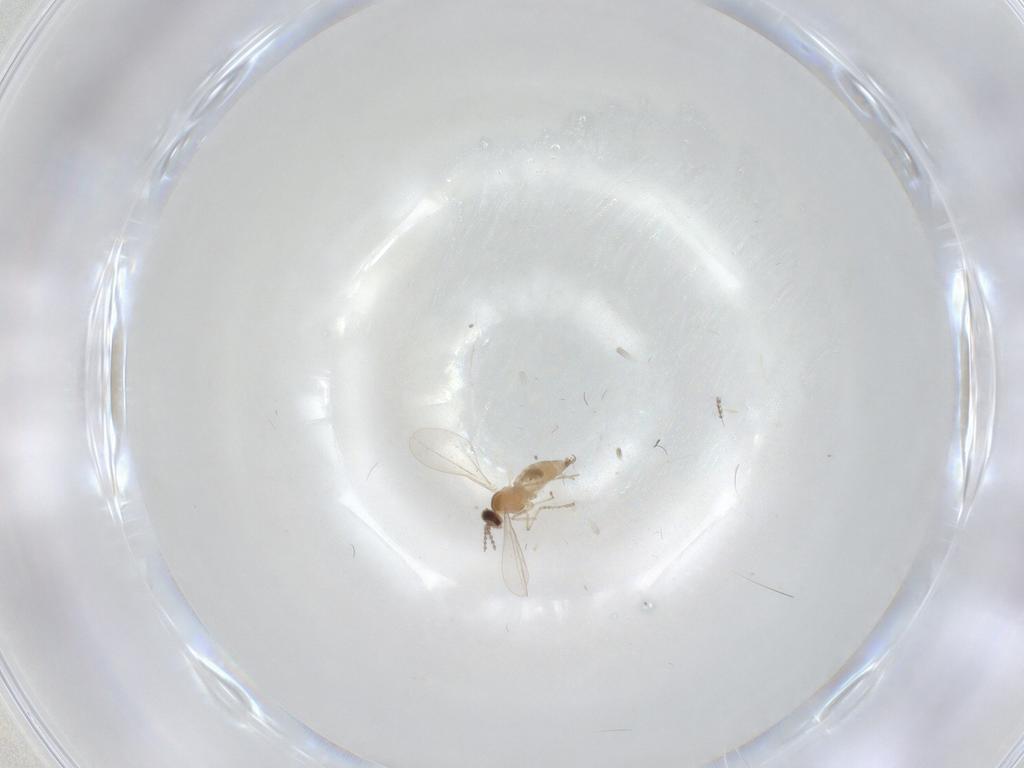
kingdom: Animalia
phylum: Arthropoda
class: Insecta
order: Diptera
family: Cecidomyiidae
